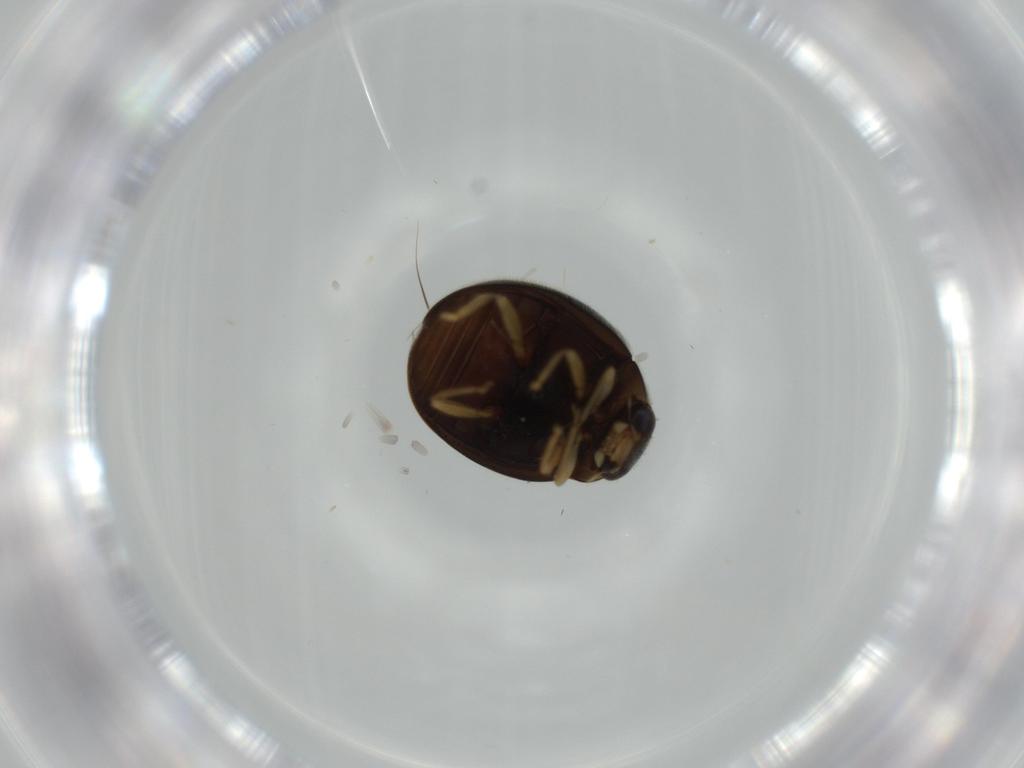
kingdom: Animalia
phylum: Arthropoda
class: Insecta
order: Coleoptera
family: Coccinellidae
